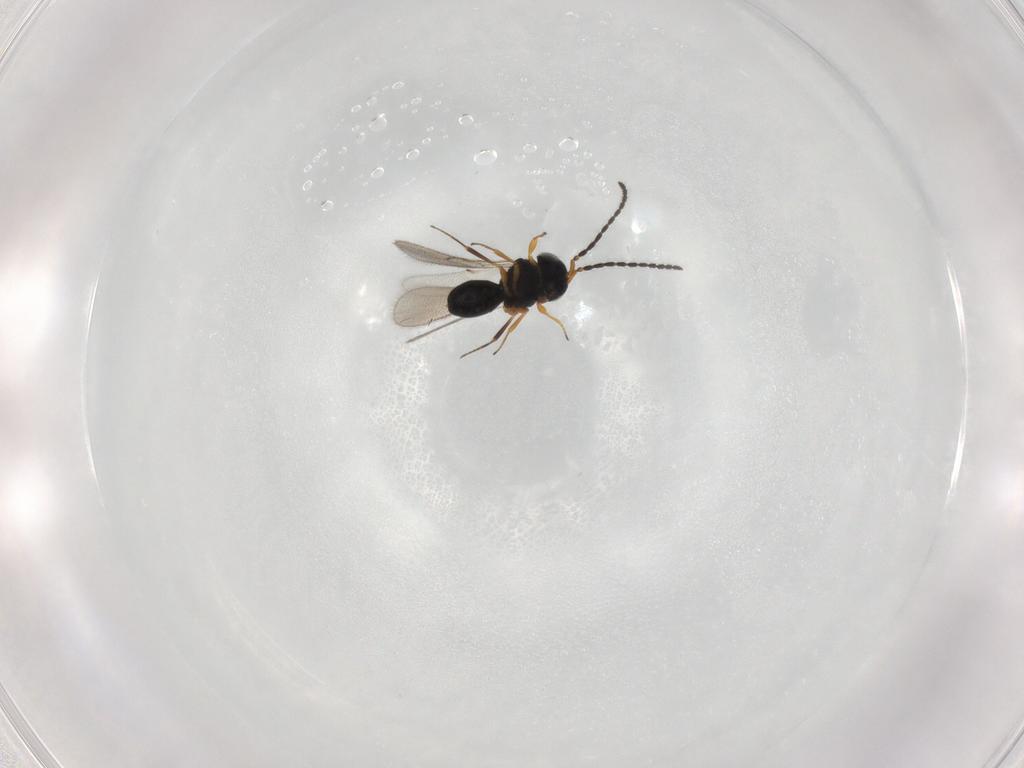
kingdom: Animalia
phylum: Arthropoda
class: Insecta
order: Hymenoptera
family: Scelionidae
